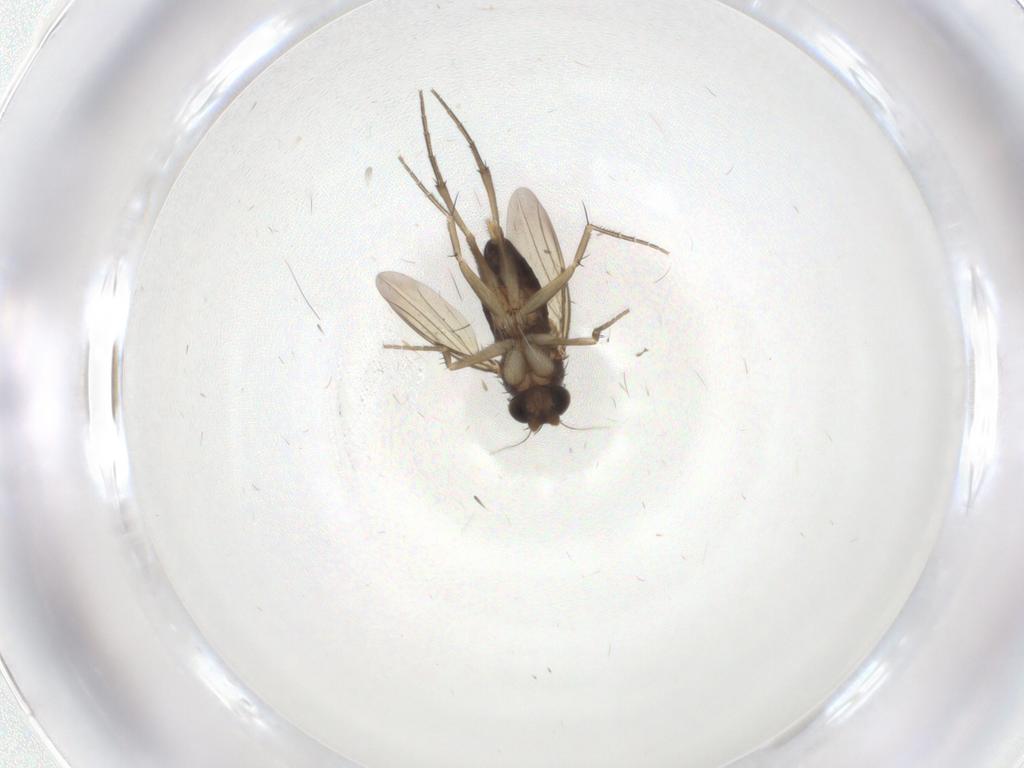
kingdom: Animalia
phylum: Arthropoda
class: Insecta
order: Diptera
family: Phoridae
